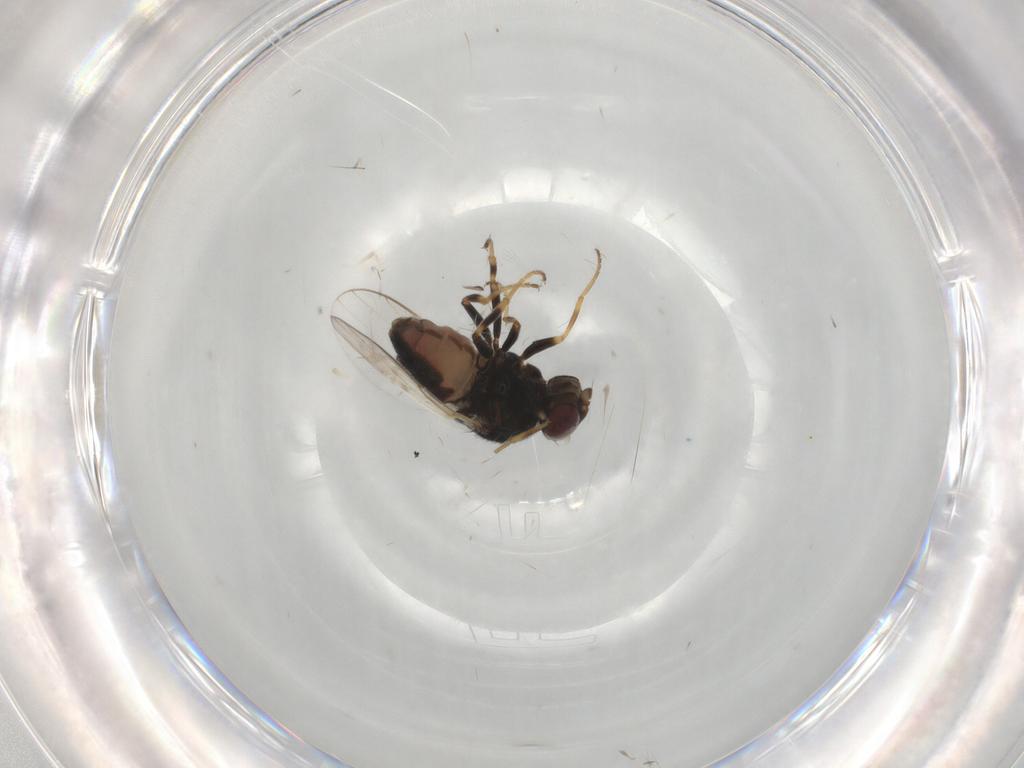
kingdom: Animalia
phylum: Arthropoda
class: Insecta
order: Diptera
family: Chloropidae
